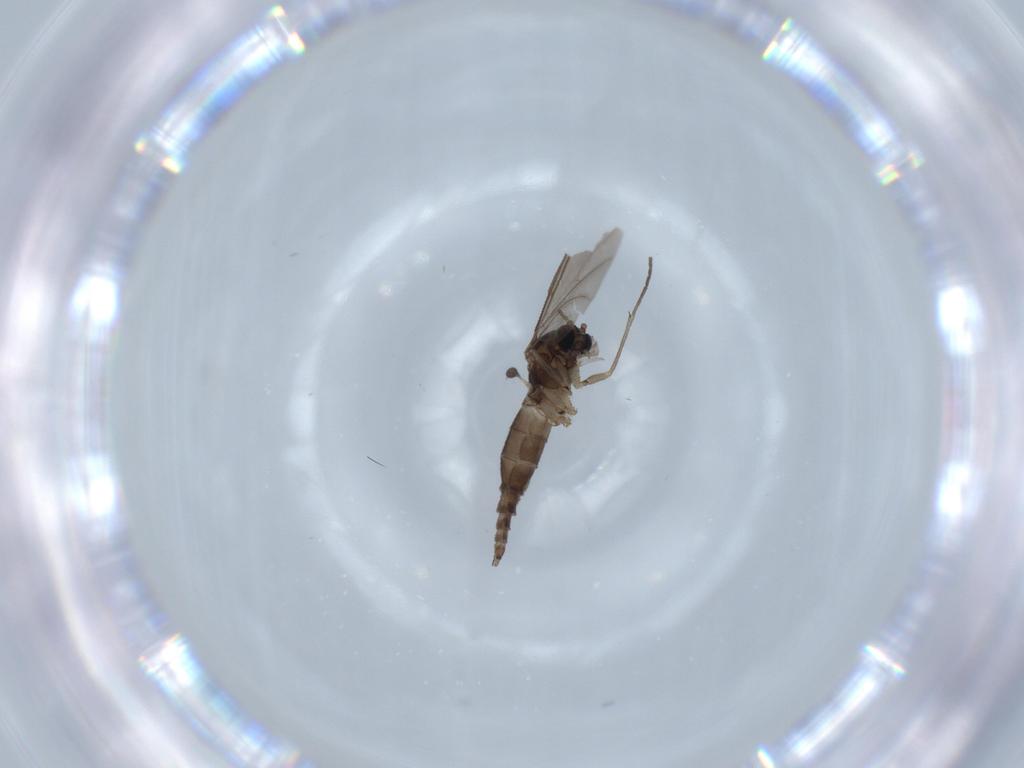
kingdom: Animalia
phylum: Arthropoda
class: Insecta
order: Diptera
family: Sciaridae
